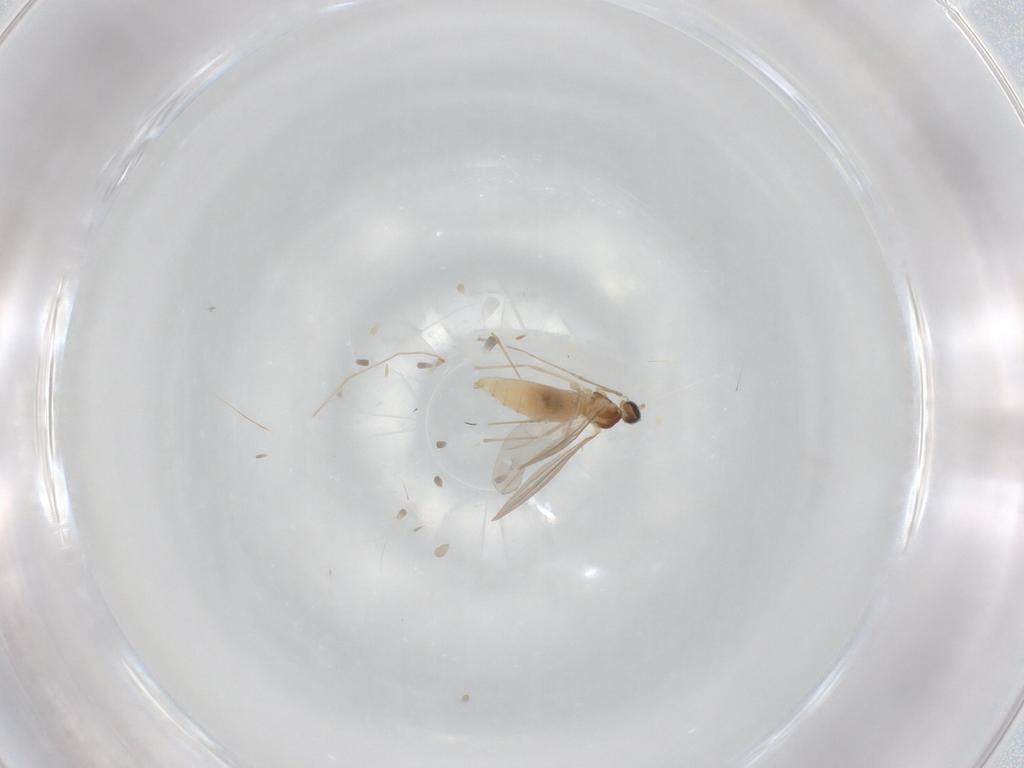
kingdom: Animalia
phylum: Arthropoda
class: Insecta
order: Diptera
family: Cecidomyiidae
